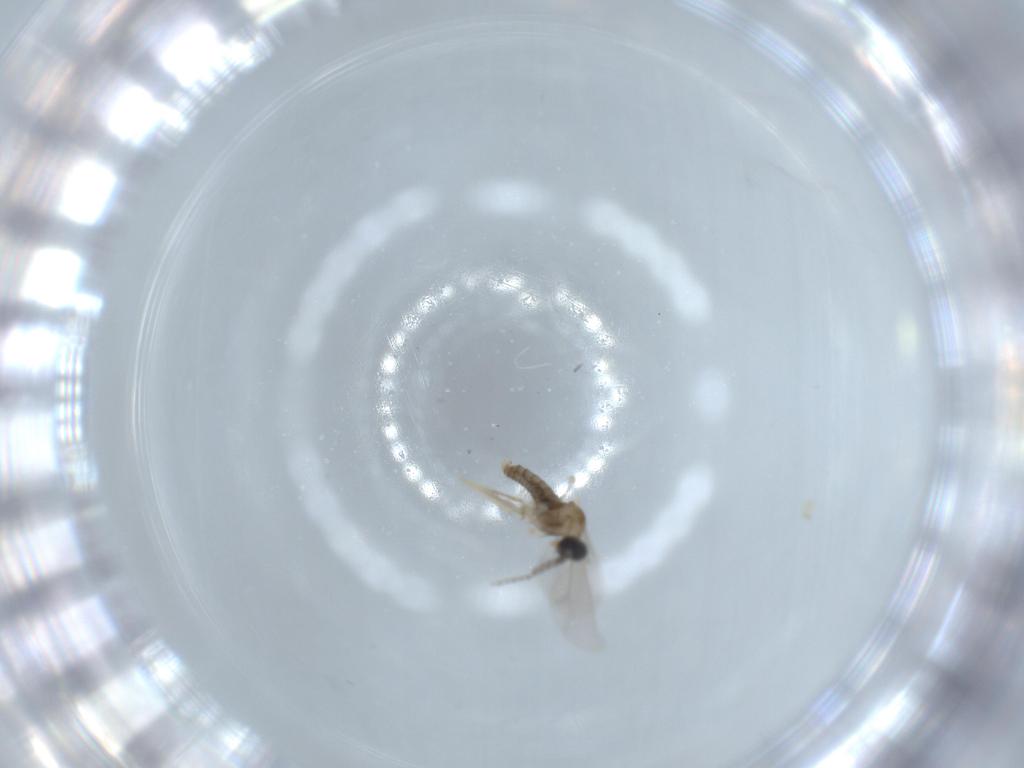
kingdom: Animalia
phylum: Arthropoda
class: Insecta
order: Diptera
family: Cecidomyiidae
